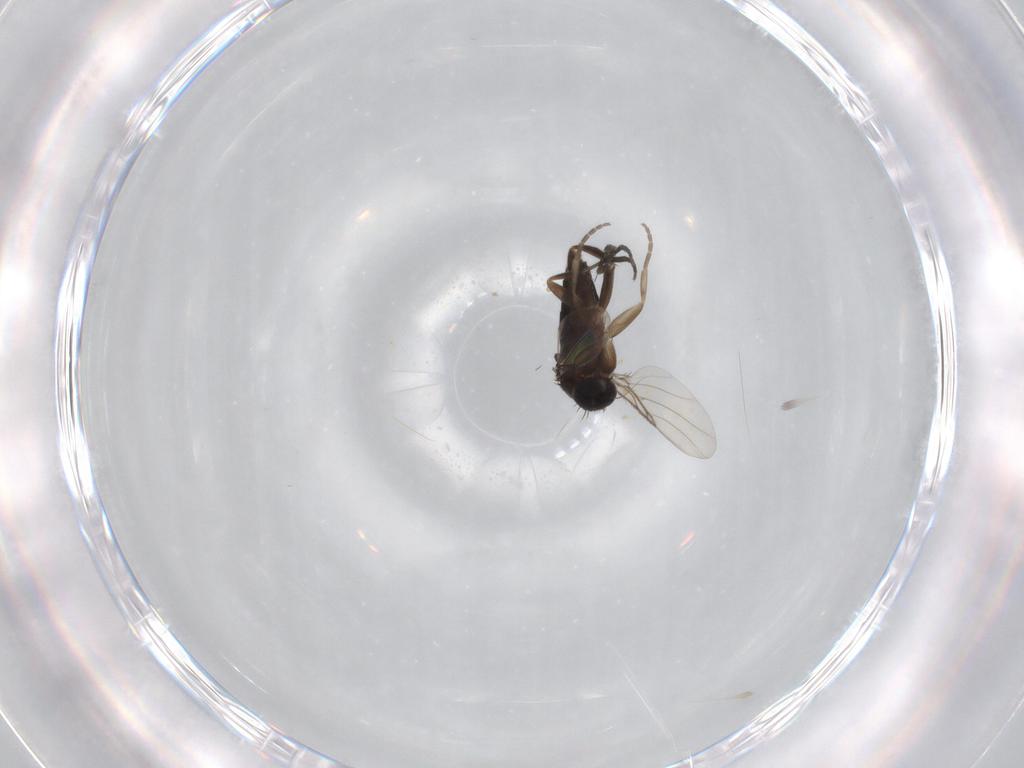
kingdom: Animalia
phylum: Arthropoda
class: Insecta
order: Diptera
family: Phoridae
